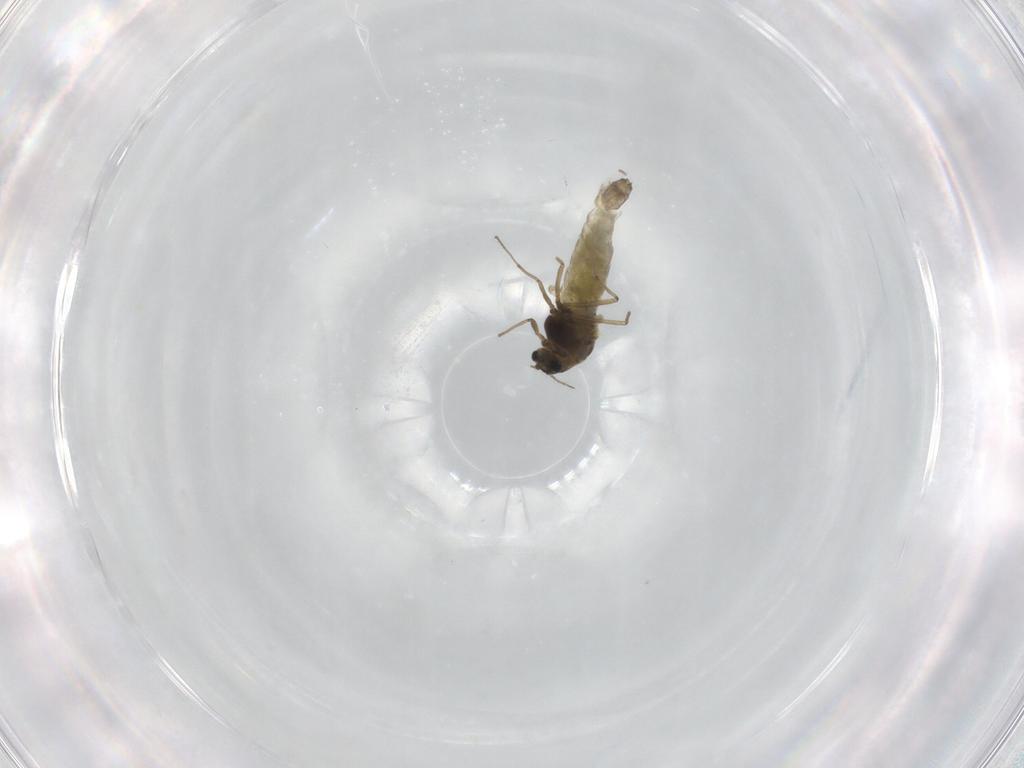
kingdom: Animalia
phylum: Arthropoda
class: Insecta
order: Diptera
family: Chironomidae
